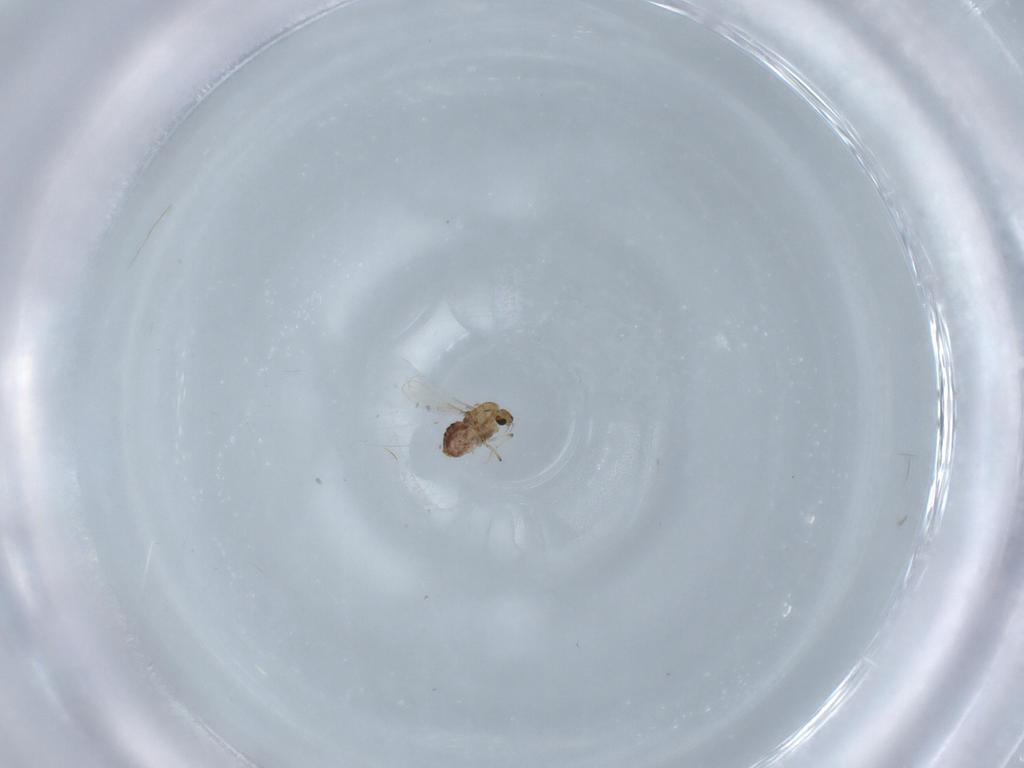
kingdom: Animalia
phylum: Arthropoda
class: Insecta
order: Diptera
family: Chironomidae
